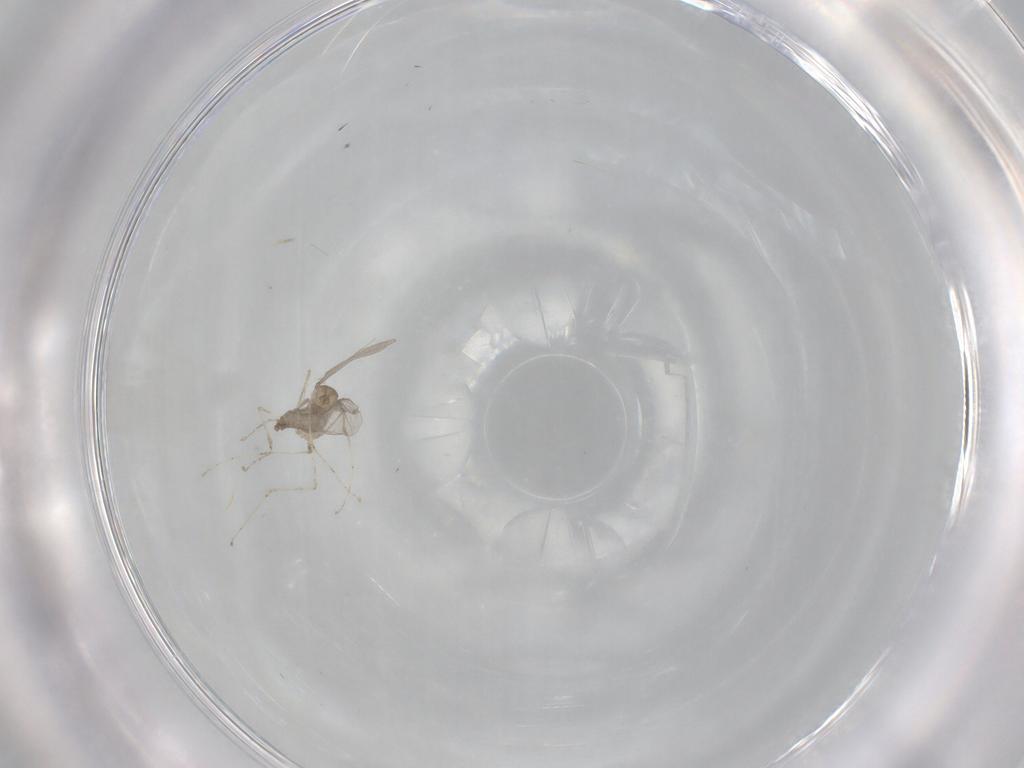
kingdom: Animalia
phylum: Arthropoda
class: Insecta
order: Diptera
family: Cecidomyiidae
